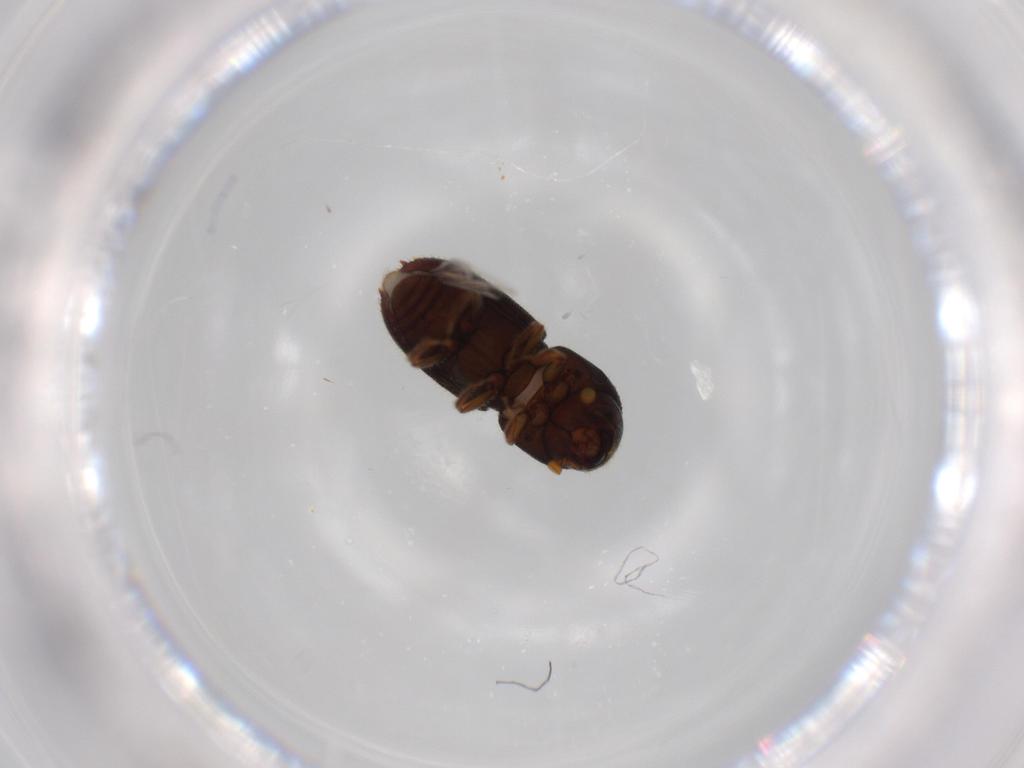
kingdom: Animalia
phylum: Arthropoda
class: Insecta
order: Coleoptera
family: Curculionidae
